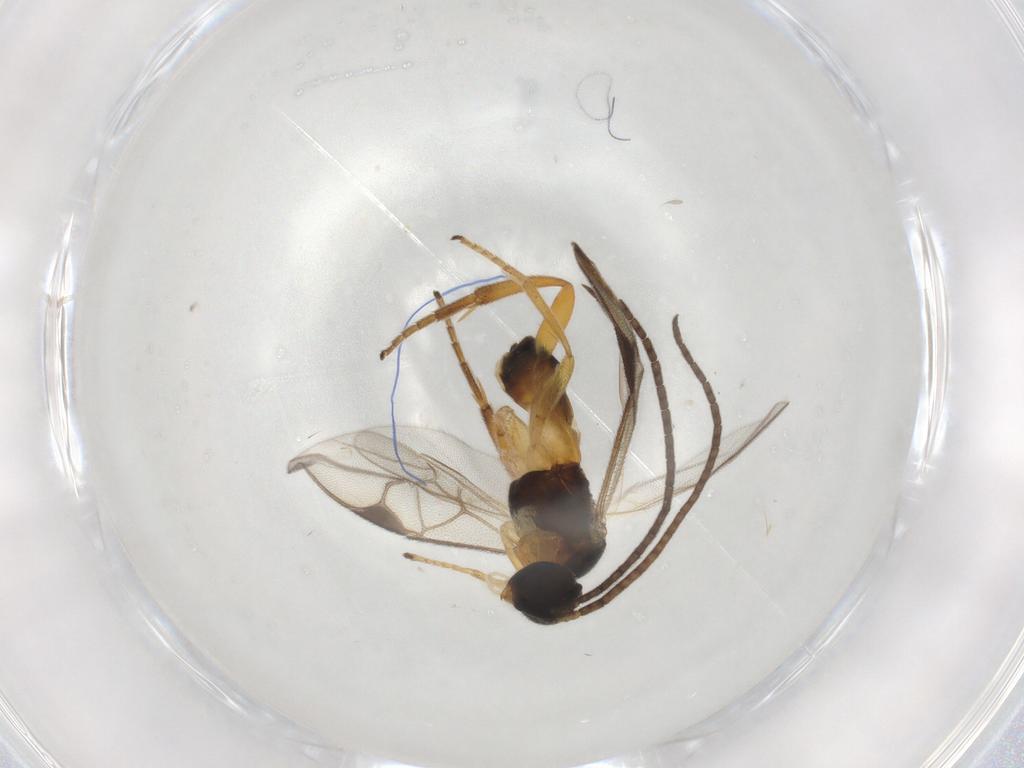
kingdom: Animalia
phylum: Arthropoda
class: Insecta
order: Hymenoptera
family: Braconidae
